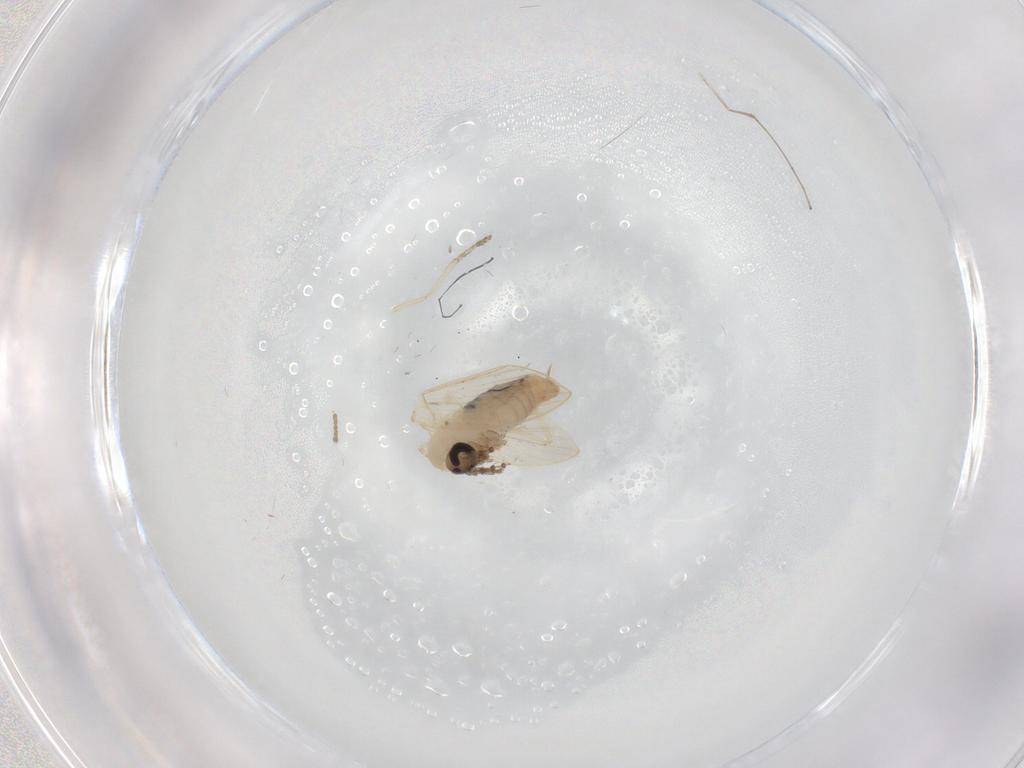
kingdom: Animalia
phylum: Arthropoda
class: Insecta
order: Diptera
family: Psychodidae
